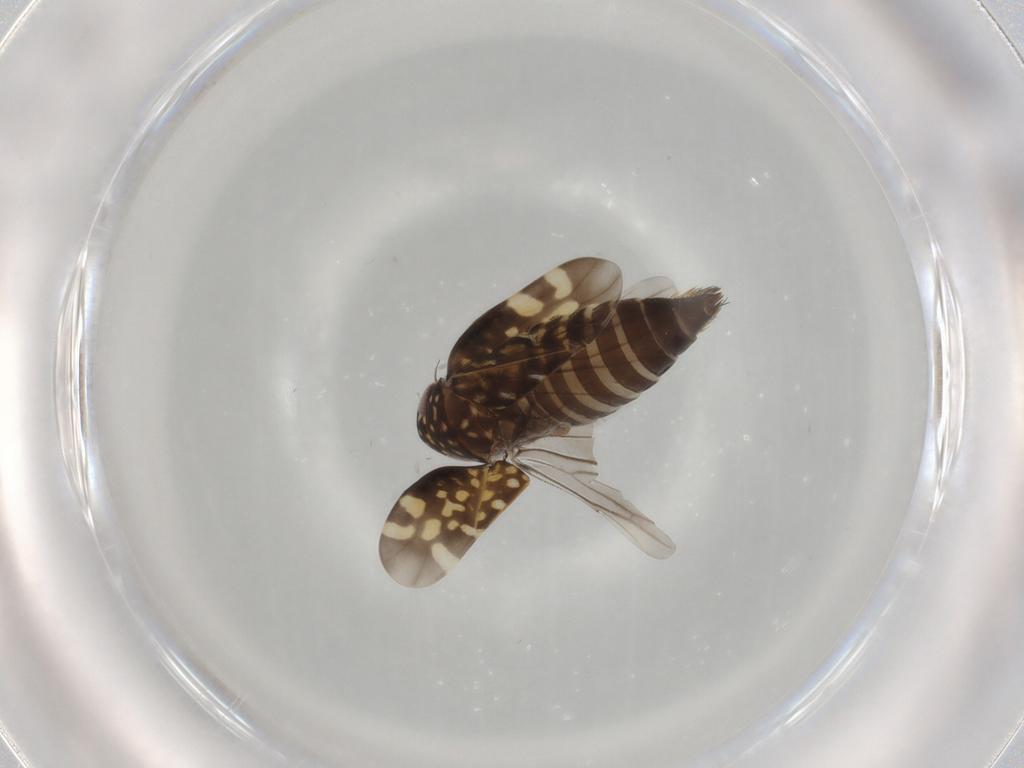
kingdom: Animalia
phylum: Arthropoda
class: Insecta
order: Hemiptera
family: Cicadellidae
